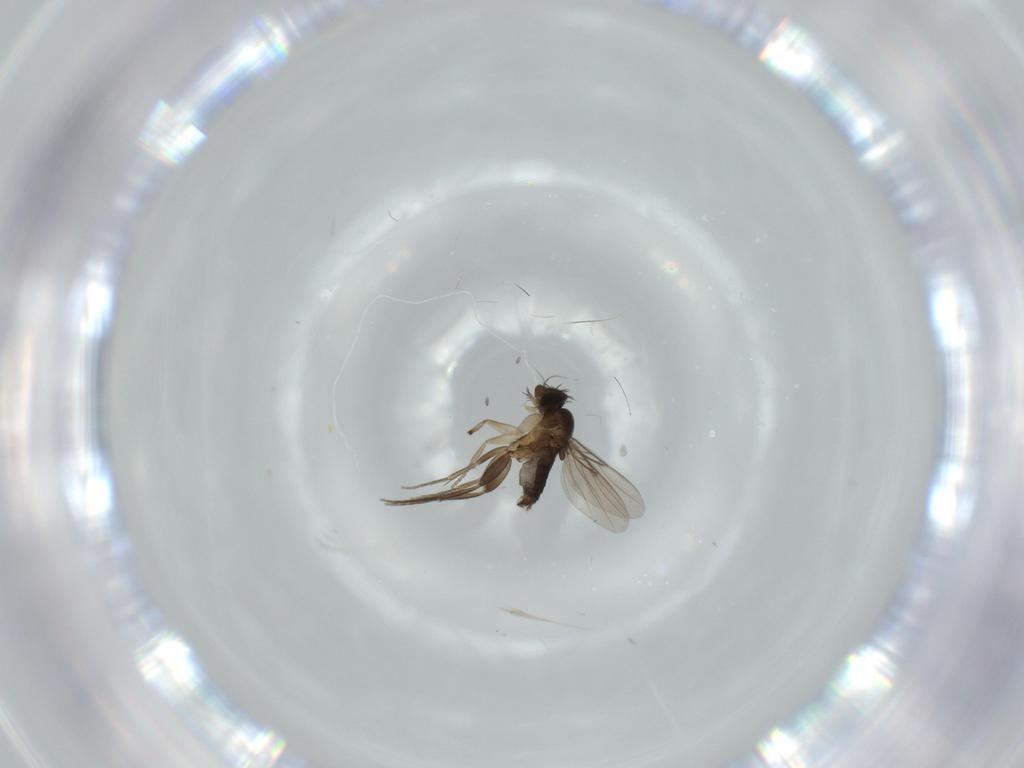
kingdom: Animalia
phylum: Arthropoda
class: Insecta
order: Diptera
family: Phoridae
